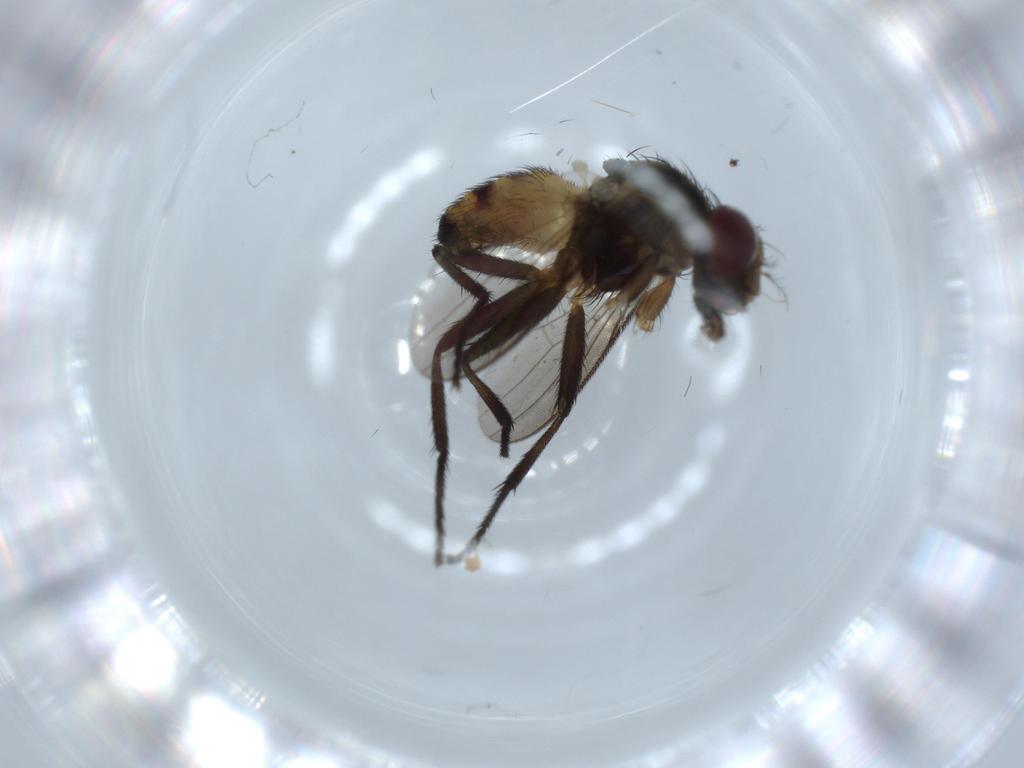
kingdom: Animalia
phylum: Arthropoda
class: Insecta
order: Diptera
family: Anthomyiidae
